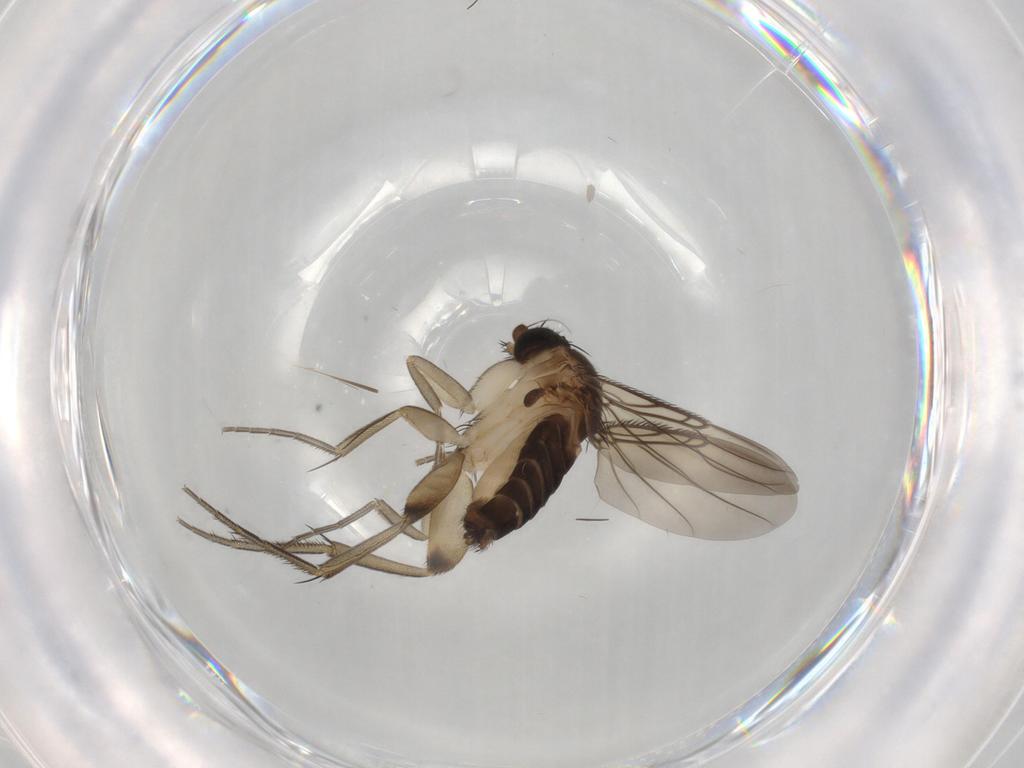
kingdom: Animalia
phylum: Arthropoda
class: Insecta
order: Diptera
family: Phoridae
